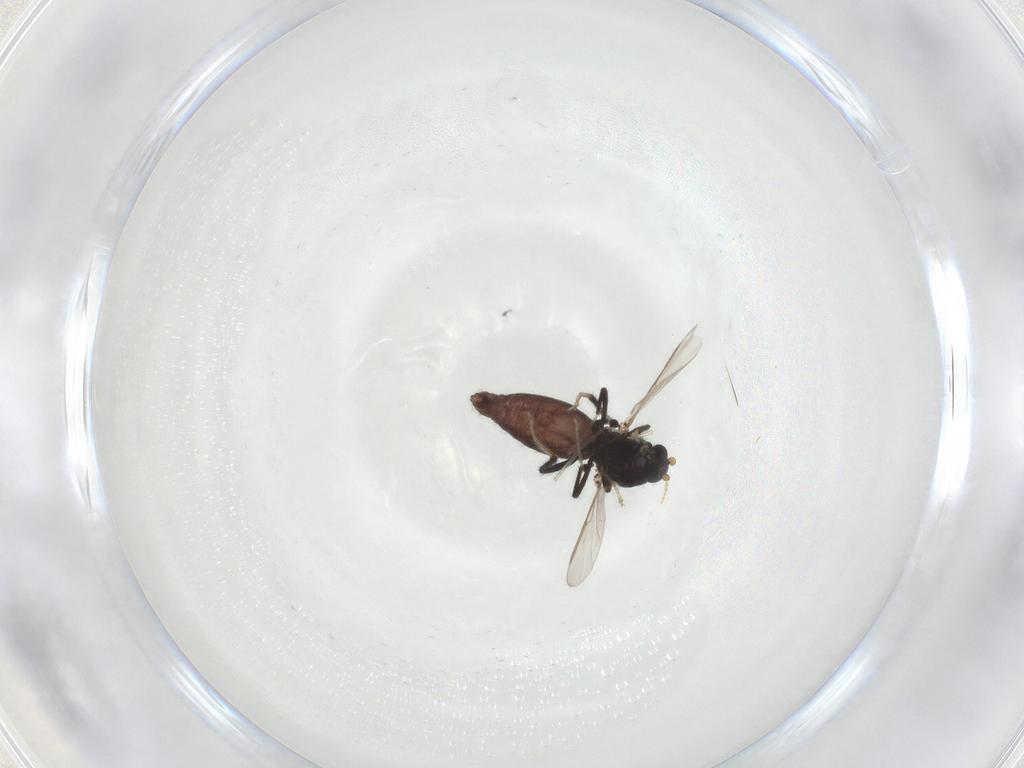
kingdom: Animalia
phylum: Arthropoda
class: Insecta
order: Diptera
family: Ceratopogonidae
